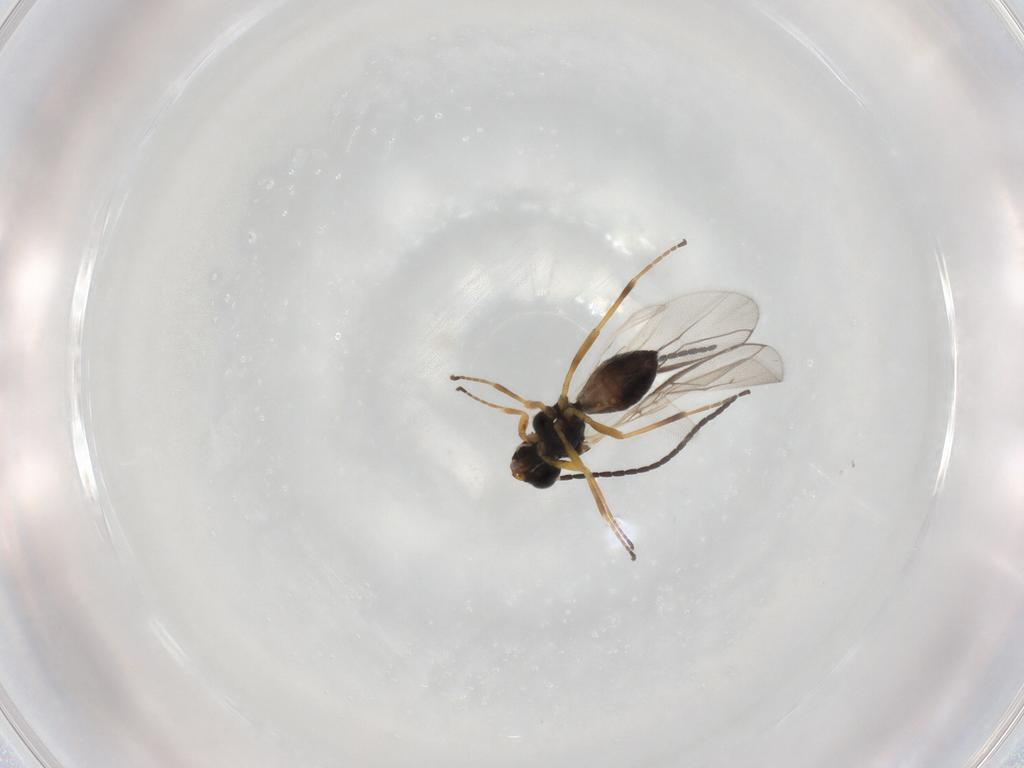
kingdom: Animalia
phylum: Arthropoda
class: Insecta
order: Hymenoptera
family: Braconidae
